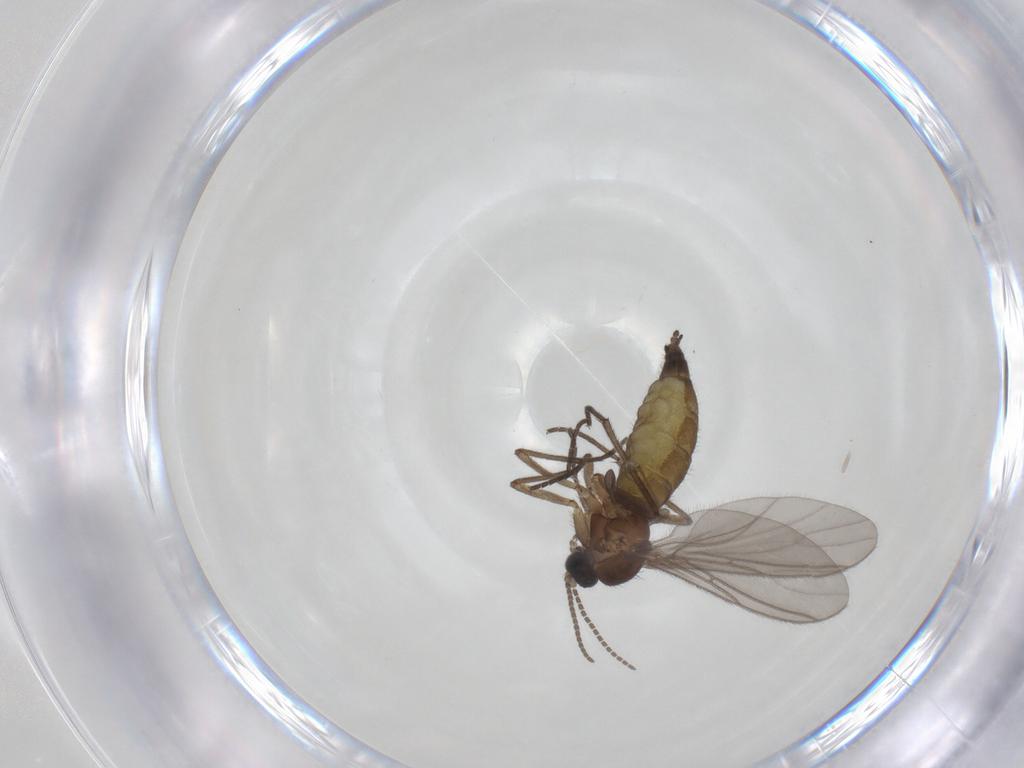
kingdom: Animalia
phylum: Arthropoda
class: Insecta
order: Diptera
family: Sciaridae
